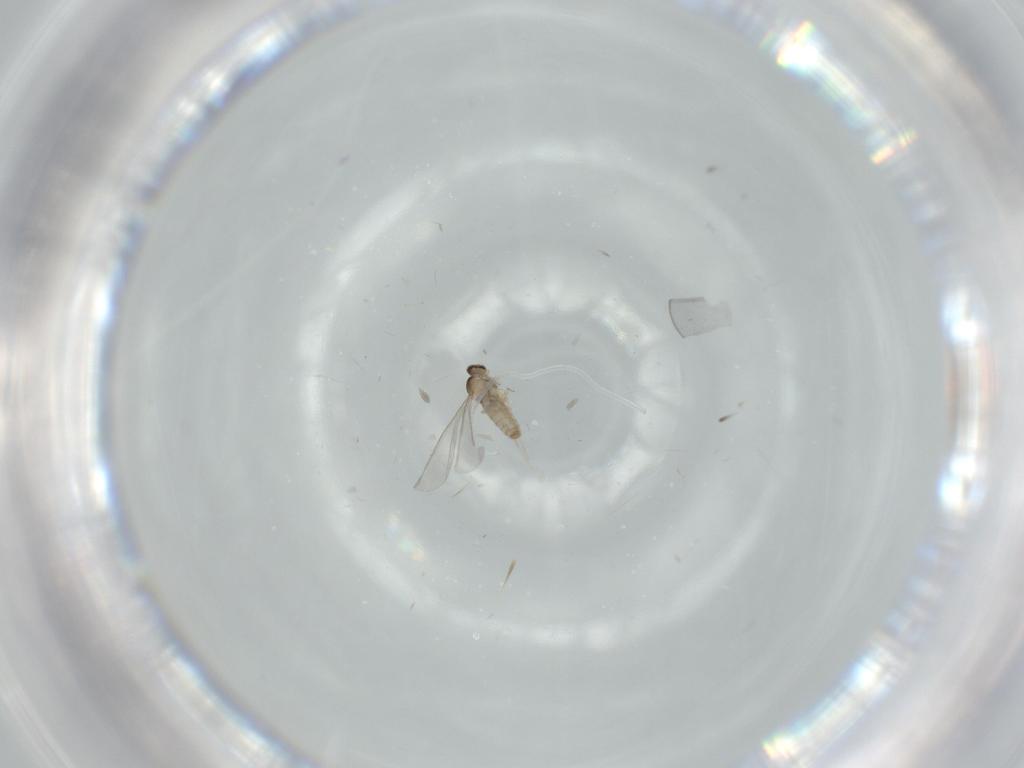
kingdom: Animalia
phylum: Arthropoda
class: Insecta
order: Diptera
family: Cecidomyiidae
